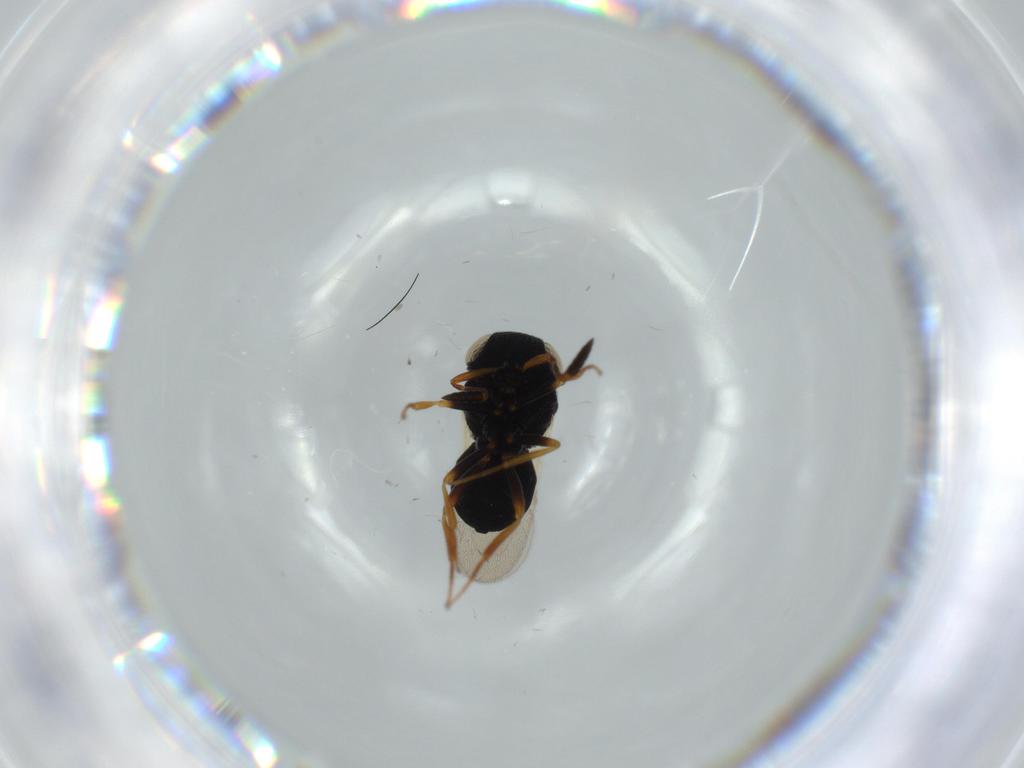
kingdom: Animalia
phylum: Arthropoda
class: Insecta
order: Hymenoptera
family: Scelionidae
